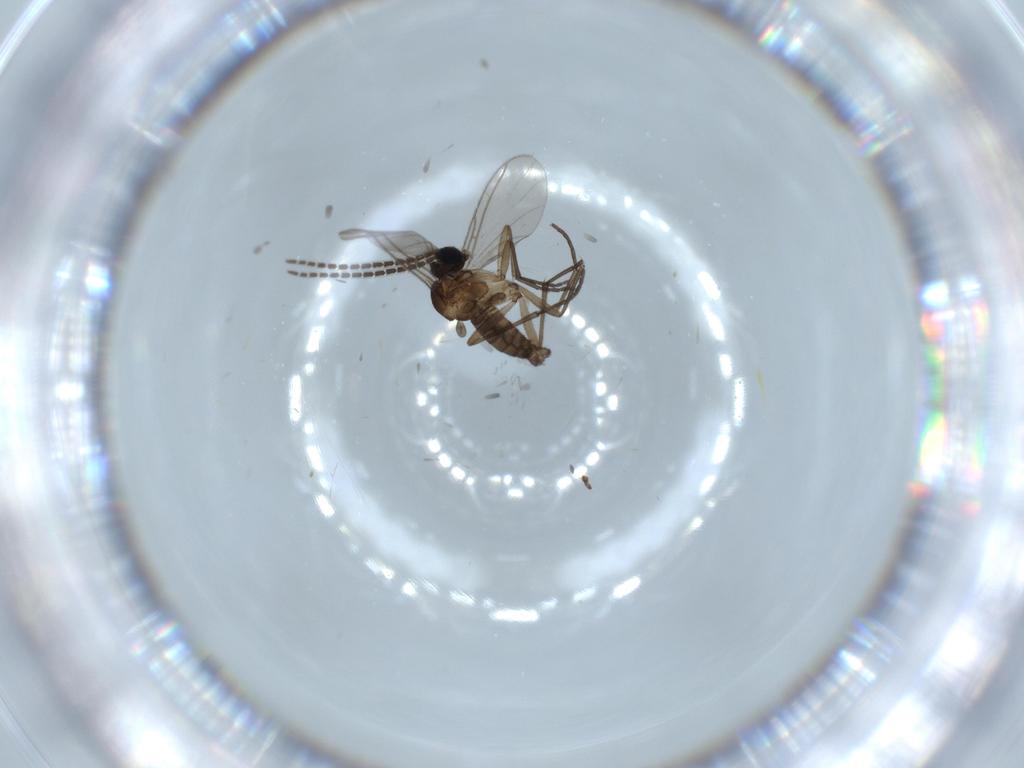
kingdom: Animalia
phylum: Arthropoda
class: Insecta
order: Diptera
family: Sciaridae
